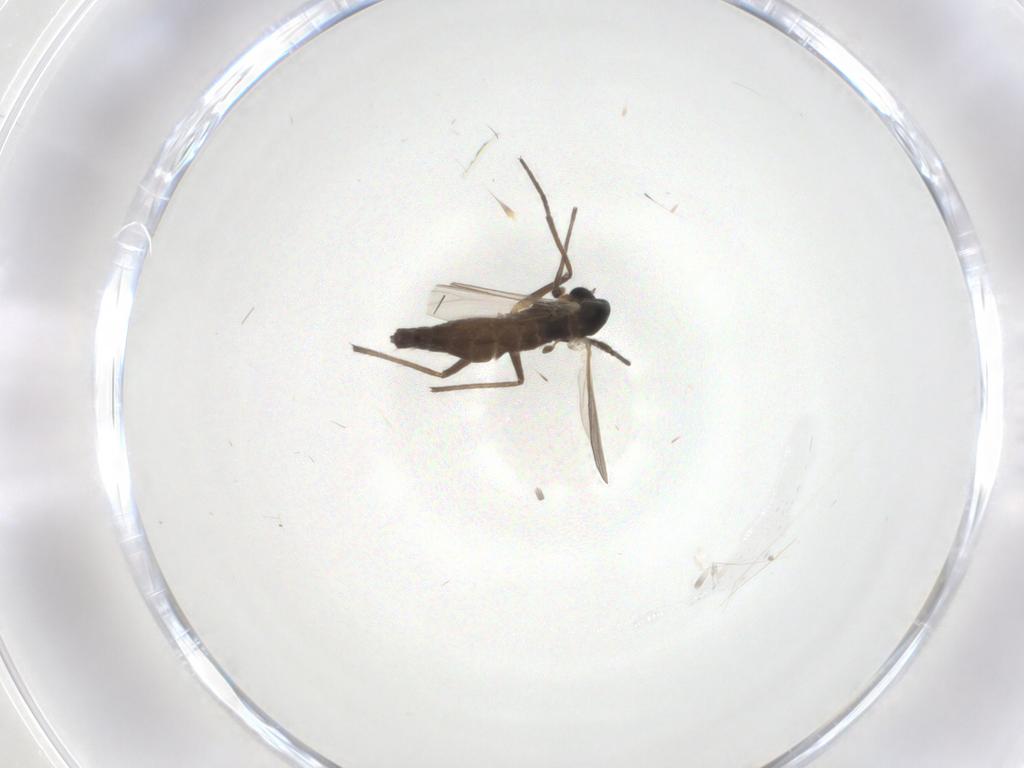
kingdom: Animalia
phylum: Arthropoda
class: Insecta
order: Diptera
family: Chironomidae
